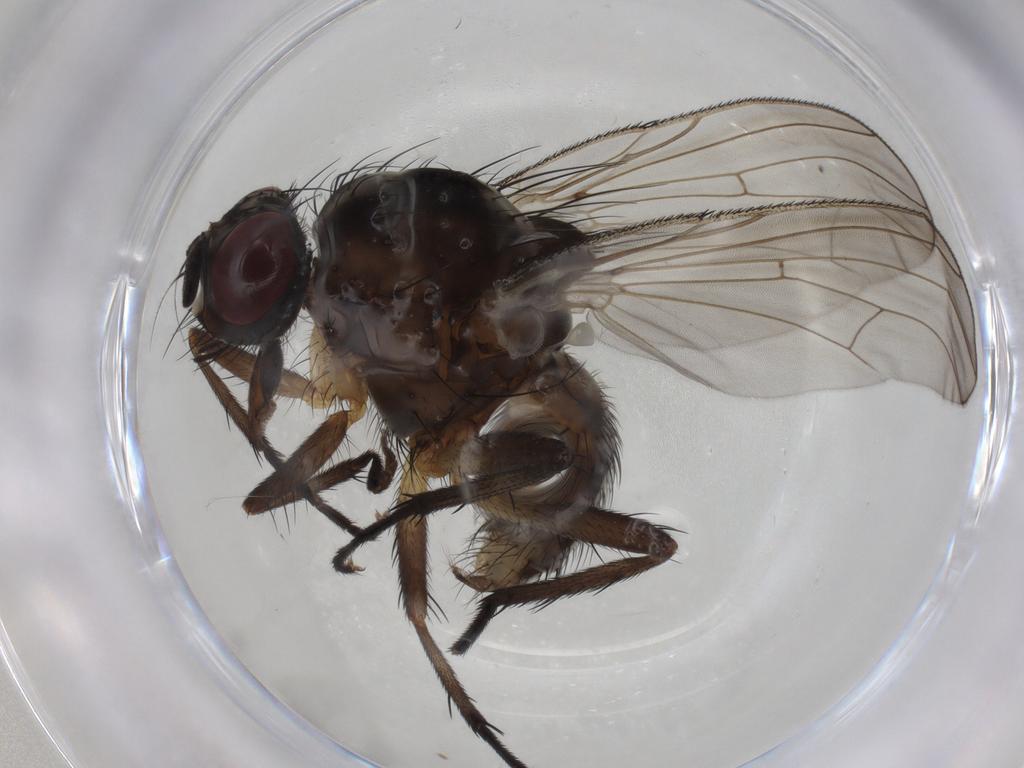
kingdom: Animalia
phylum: Arthropoda
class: Insecta
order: Diptera
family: Anthomyiidae
